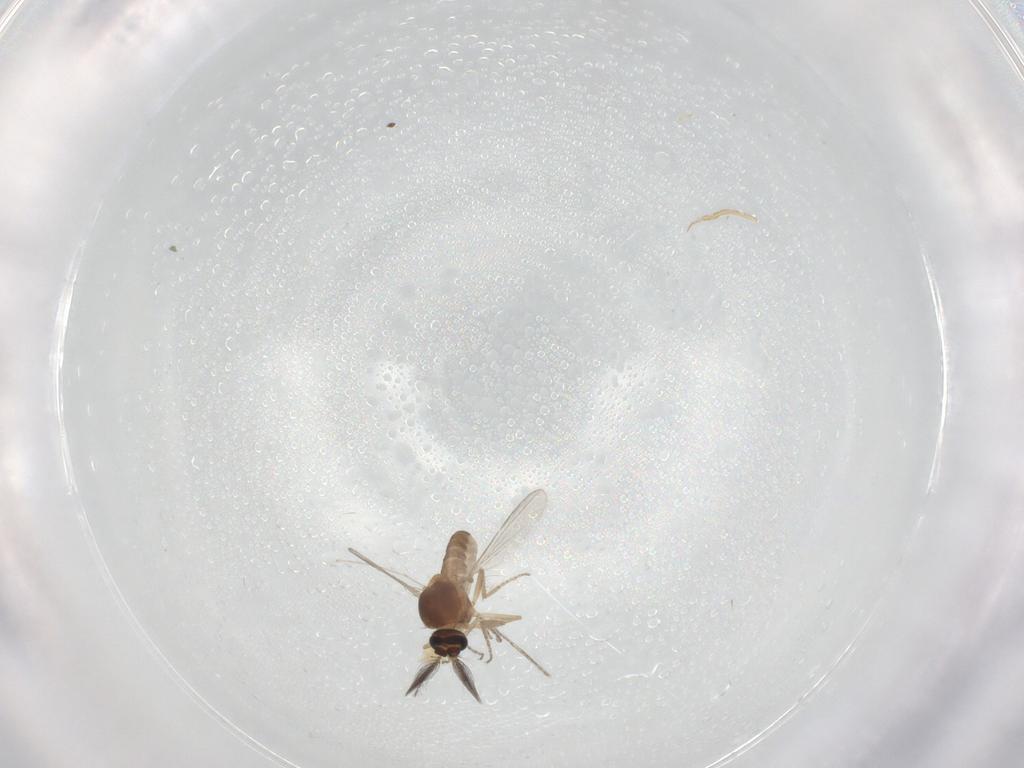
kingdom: Animalia
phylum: Arthropoda
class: Insecta
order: Diptera
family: Ceratopogonidae
